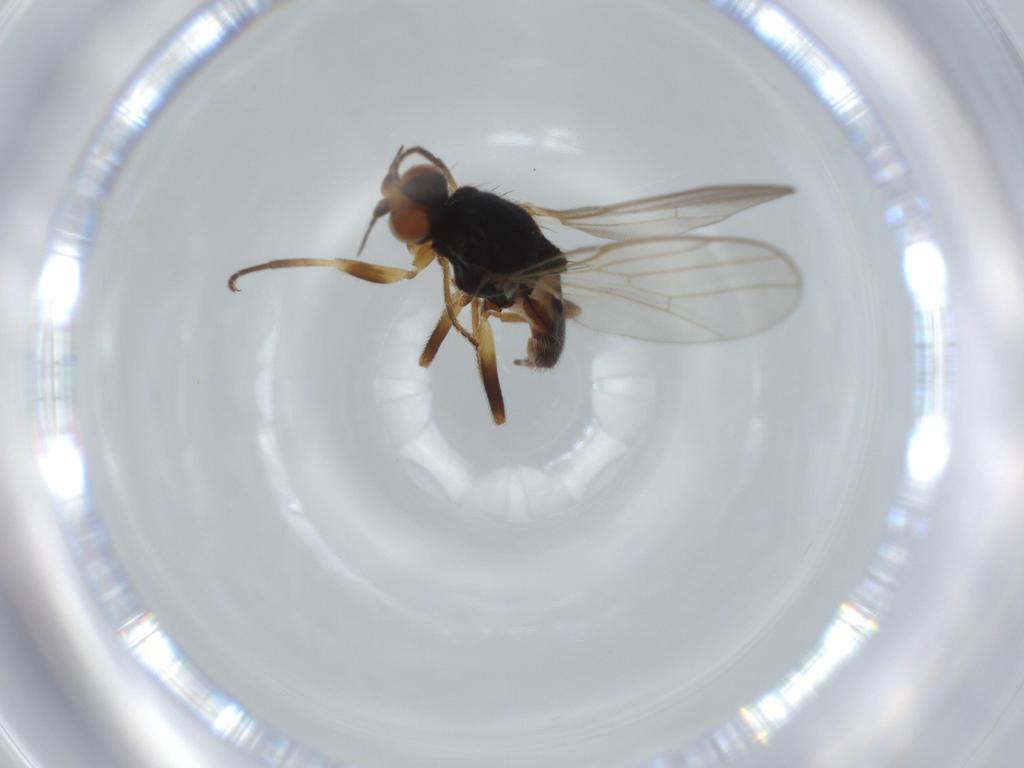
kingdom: Animalia
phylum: Arthropoda
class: Insecta
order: Diptera
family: Chloropidae
